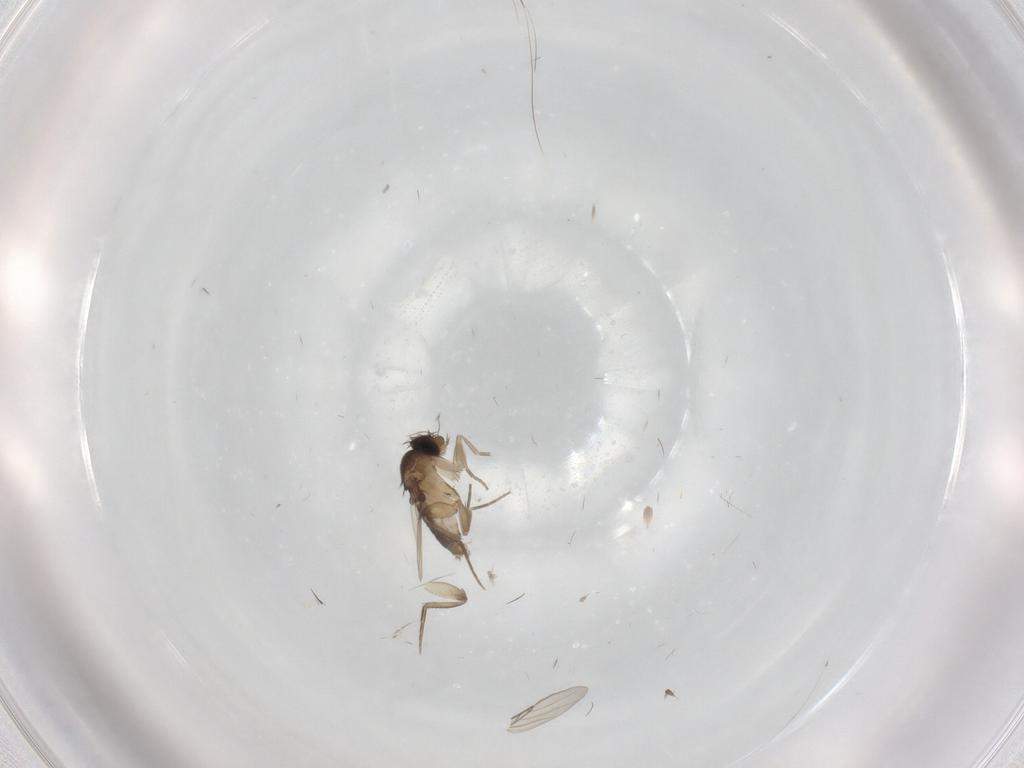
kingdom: Animalia
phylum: Arthropoda
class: Insecta
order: Diptera
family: Phoridae
